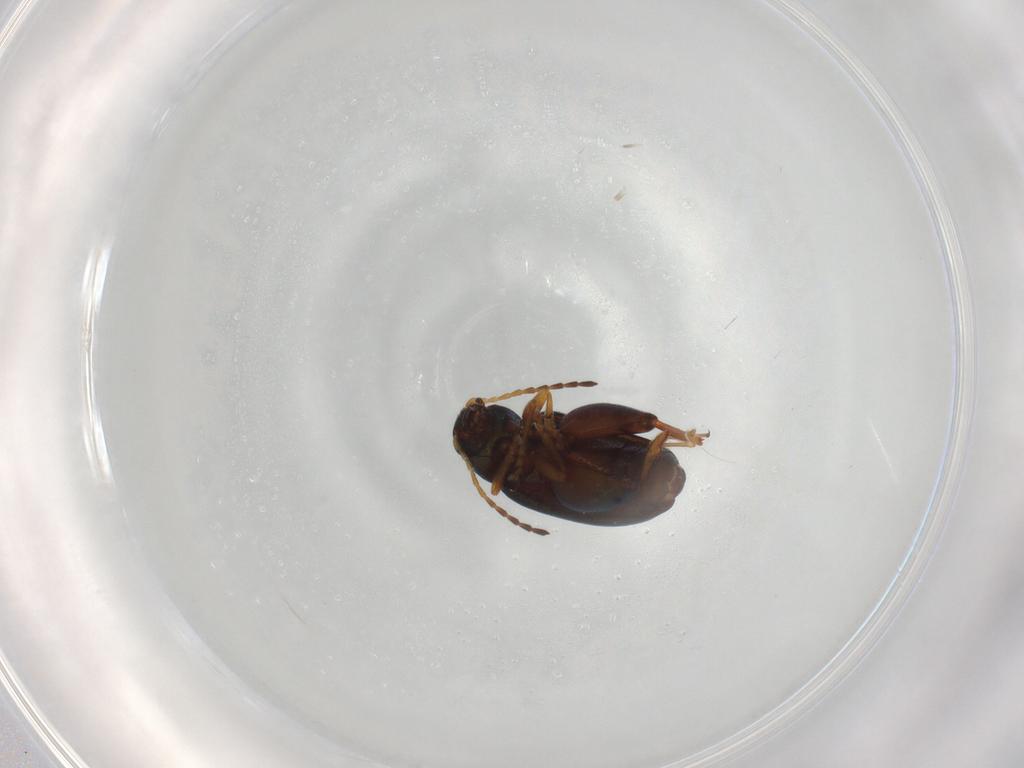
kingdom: Animalia
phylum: Arthropoda
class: Insecta
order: Coleoptera
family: Chrysomelidae
